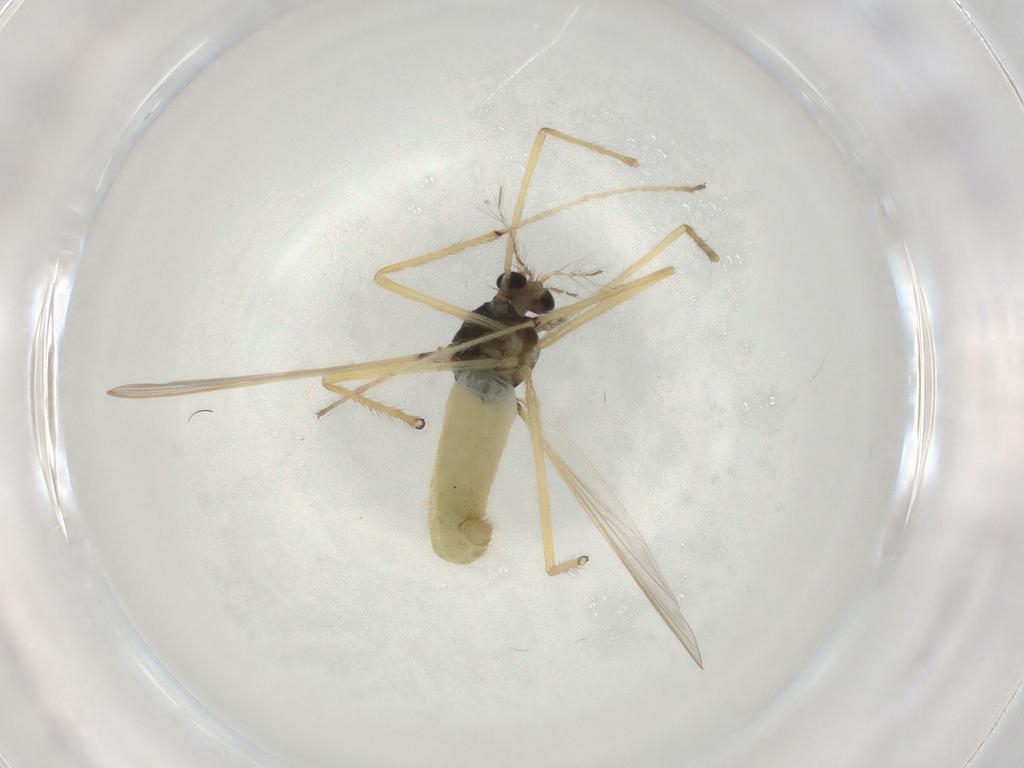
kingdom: Animalia
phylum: Arthropoda
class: Insecta
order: Diptera
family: Chironomidae
